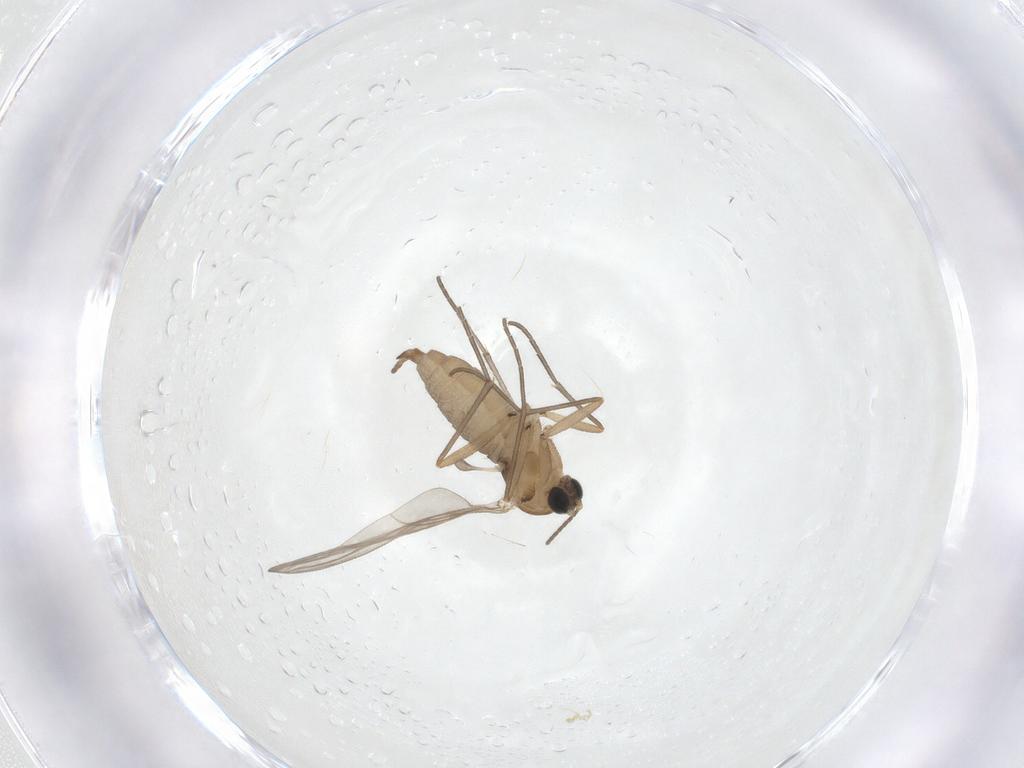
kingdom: Animalia
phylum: Arthropoda
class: Insecta
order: Diptera
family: Sciaridae
